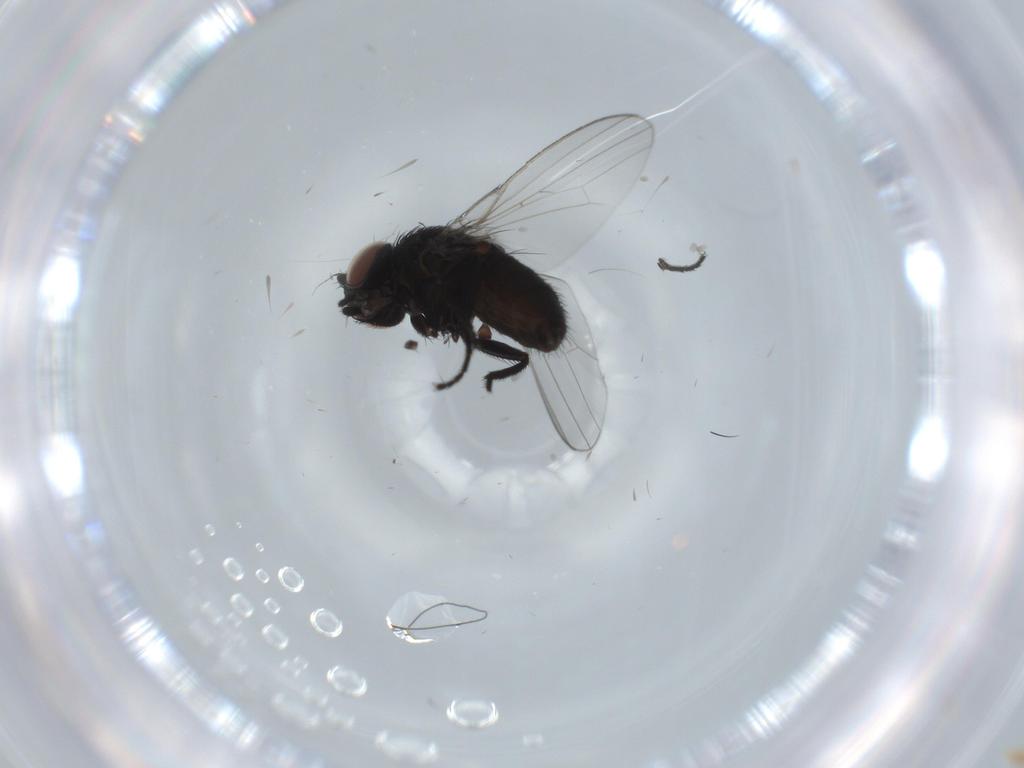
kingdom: Animalia
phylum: Arthropoda
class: Insecta
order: Diptera
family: Milichiidae
